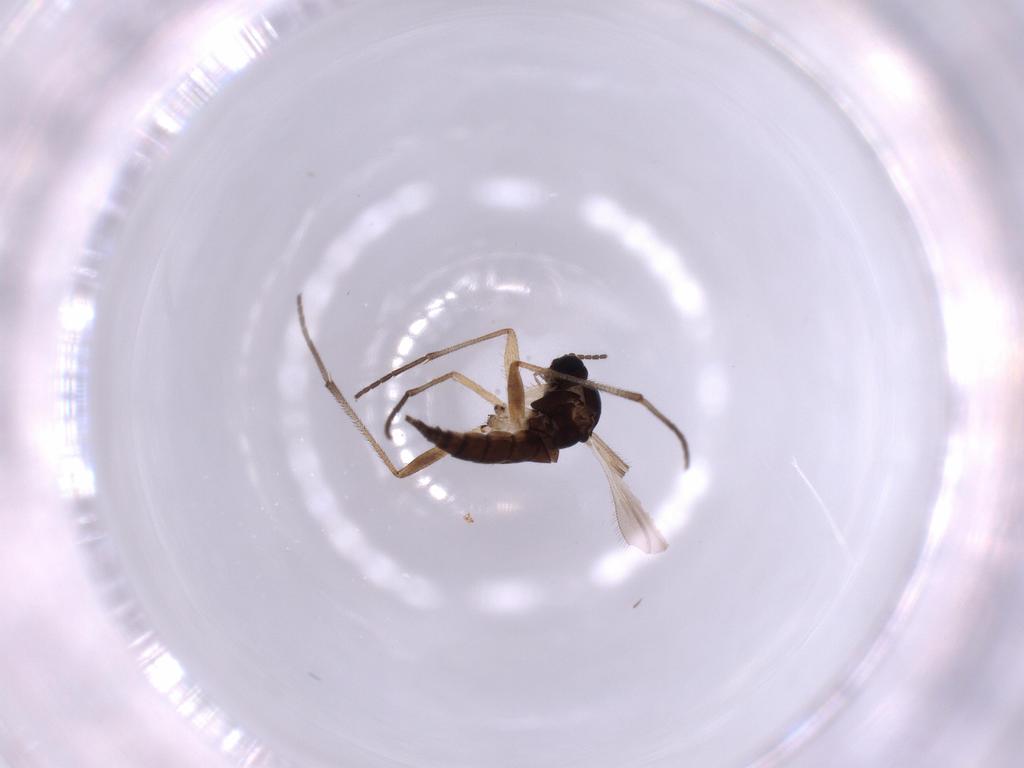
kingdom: Animalia
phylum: Arthropoda
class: Insecta
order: Diptera
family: Sciaridae
